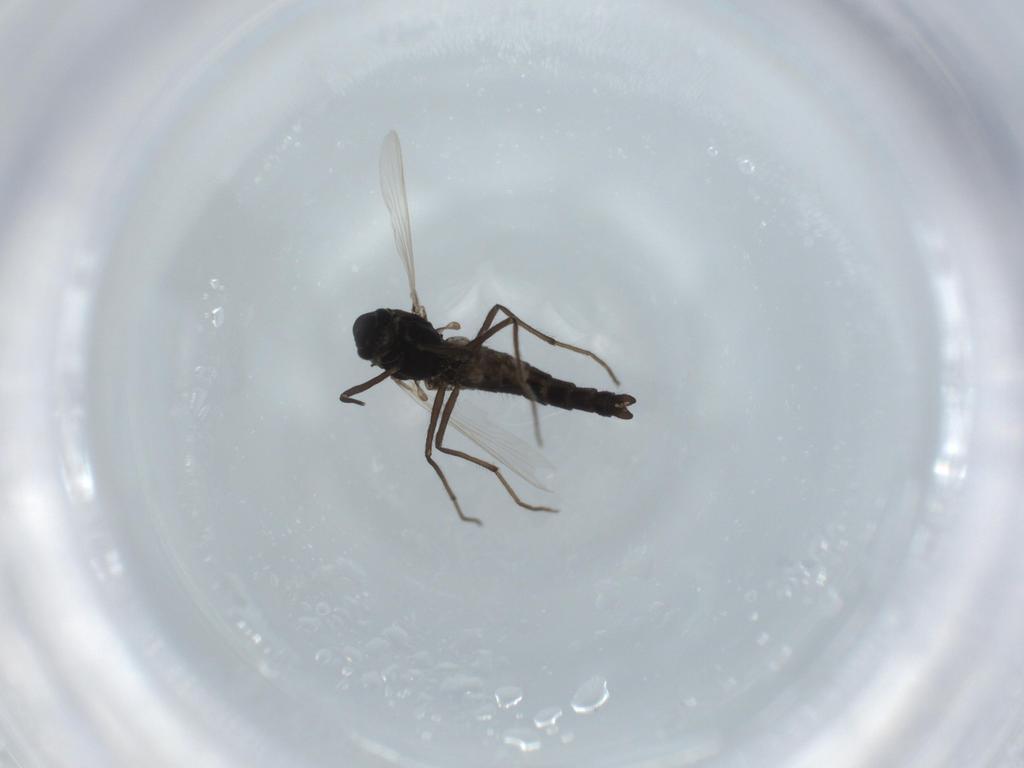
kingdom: Animalia
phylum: Arthropoda
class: Insecta
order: Diptera
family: Chironomidae
